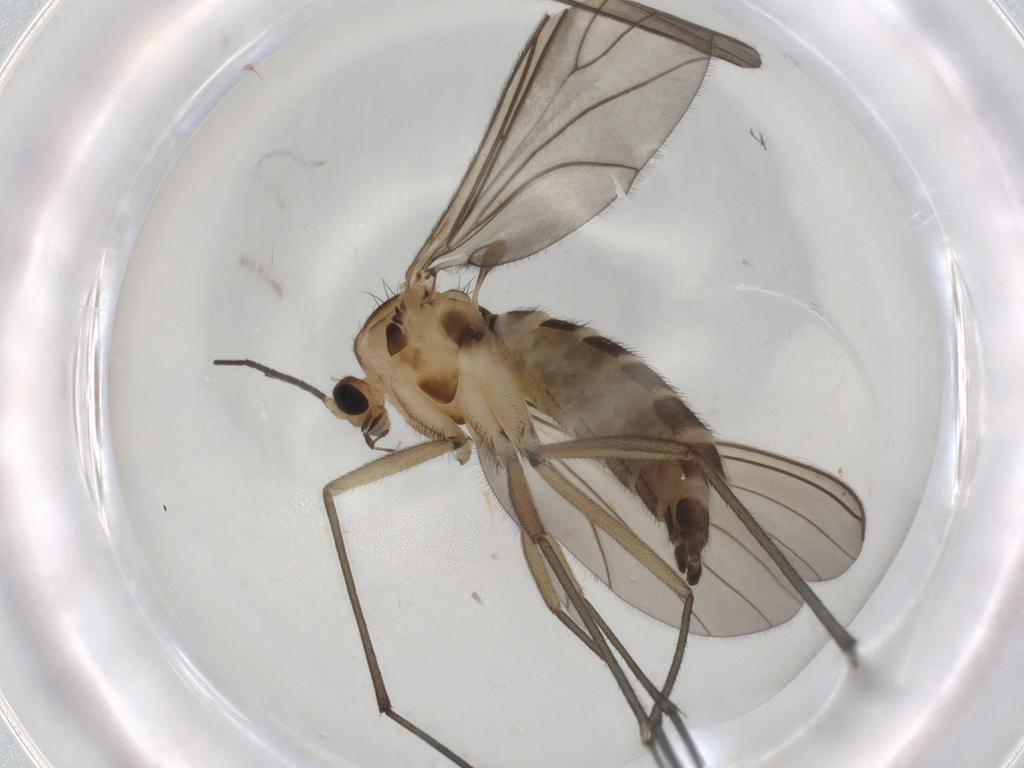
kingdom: Animalia
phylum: Arthropoda
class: Insecta
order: Diptera
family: Sciaridae
